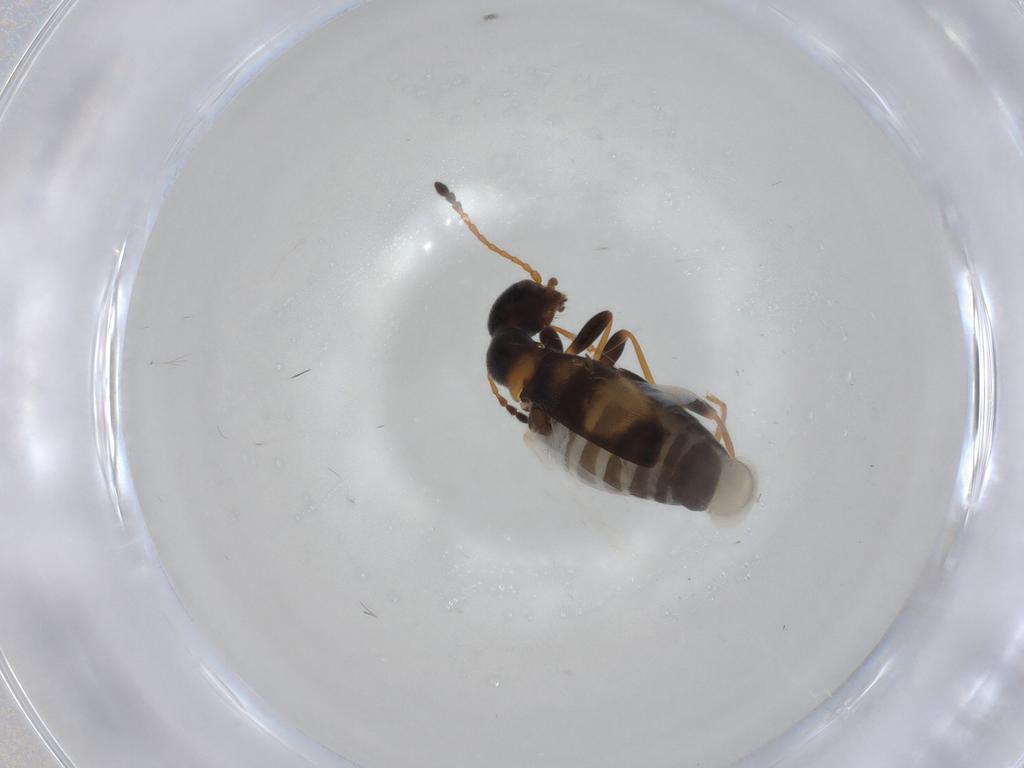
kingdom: Animalia
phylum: Arthropoda
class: Insecta
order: Coleoptera
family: Anthicidae
